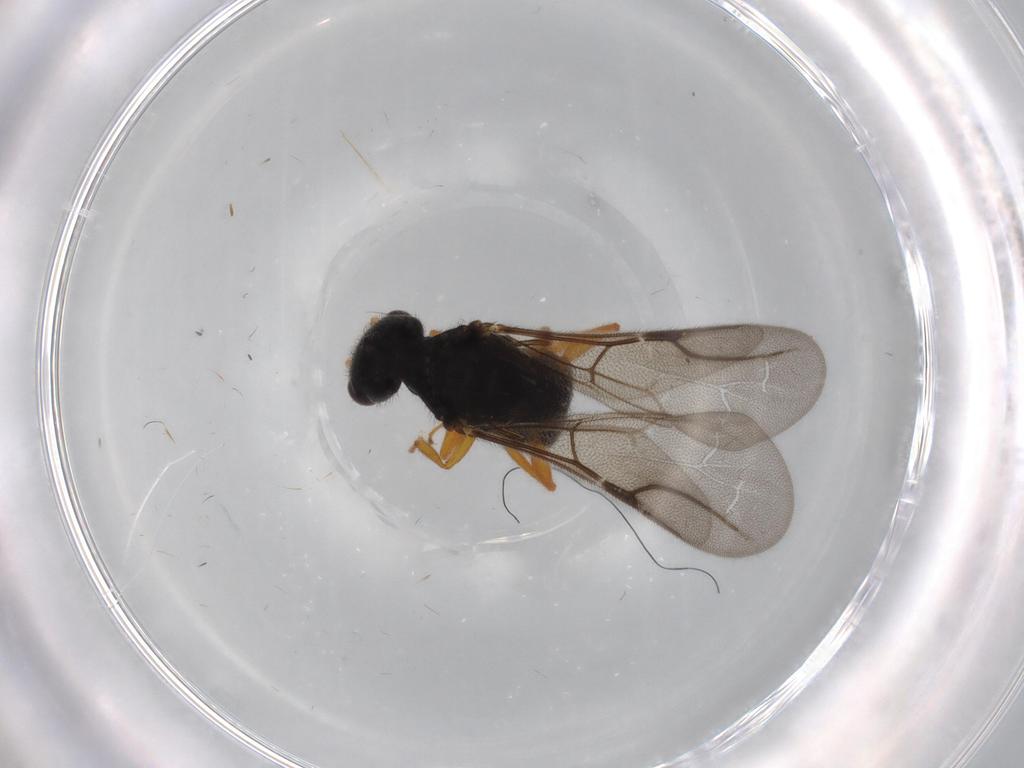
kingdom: Animalia
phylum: Arthropoda
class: Insecta
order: Hymenoptera
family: Bethylidae
